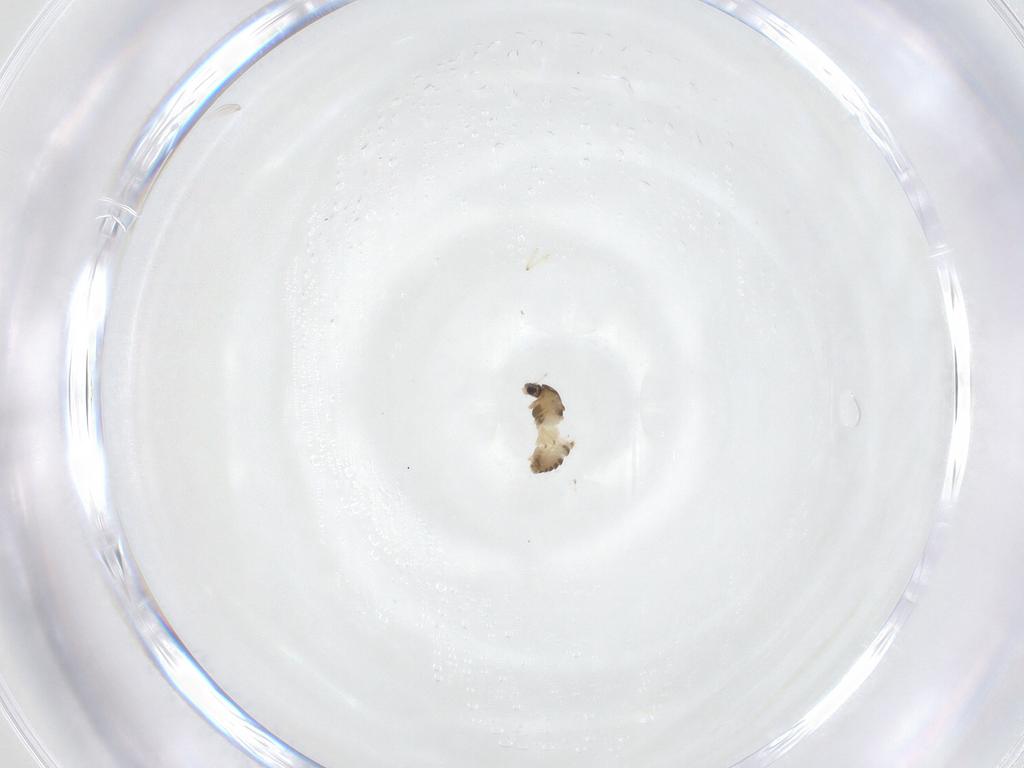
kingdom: Animalia
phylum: Arthropoda
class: Insecta
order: Diptera
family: Chironomidae
